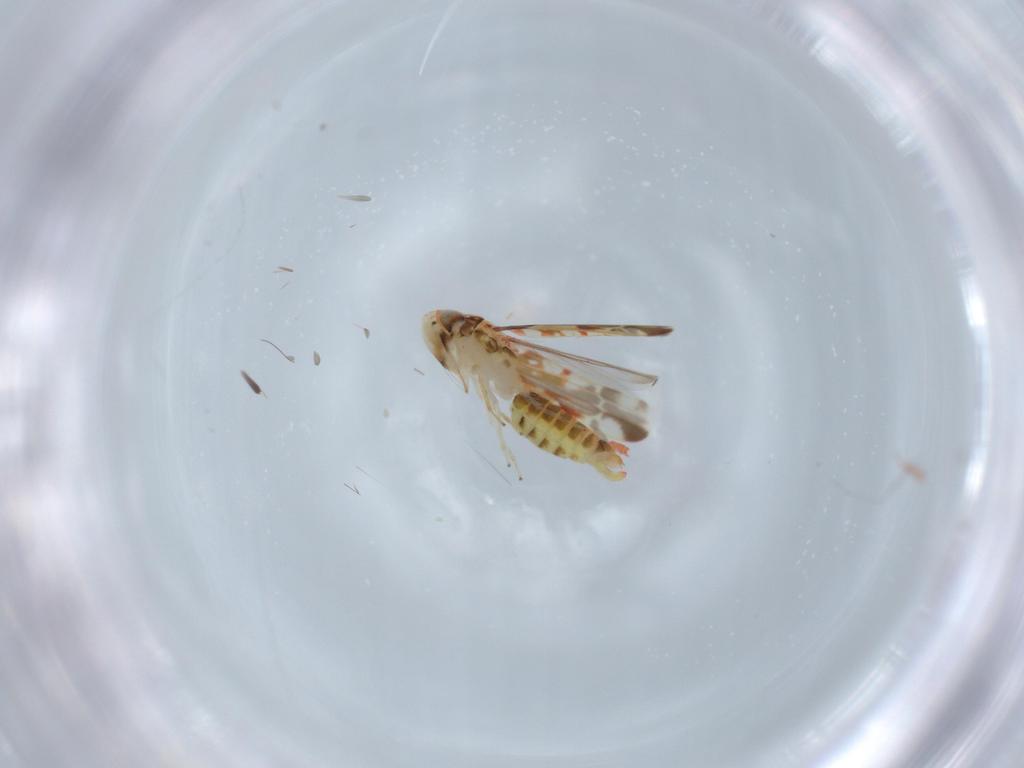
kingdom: Animalia
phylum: Arthropoda
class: Insecta
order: Hemiptera
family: Cicadellidae
